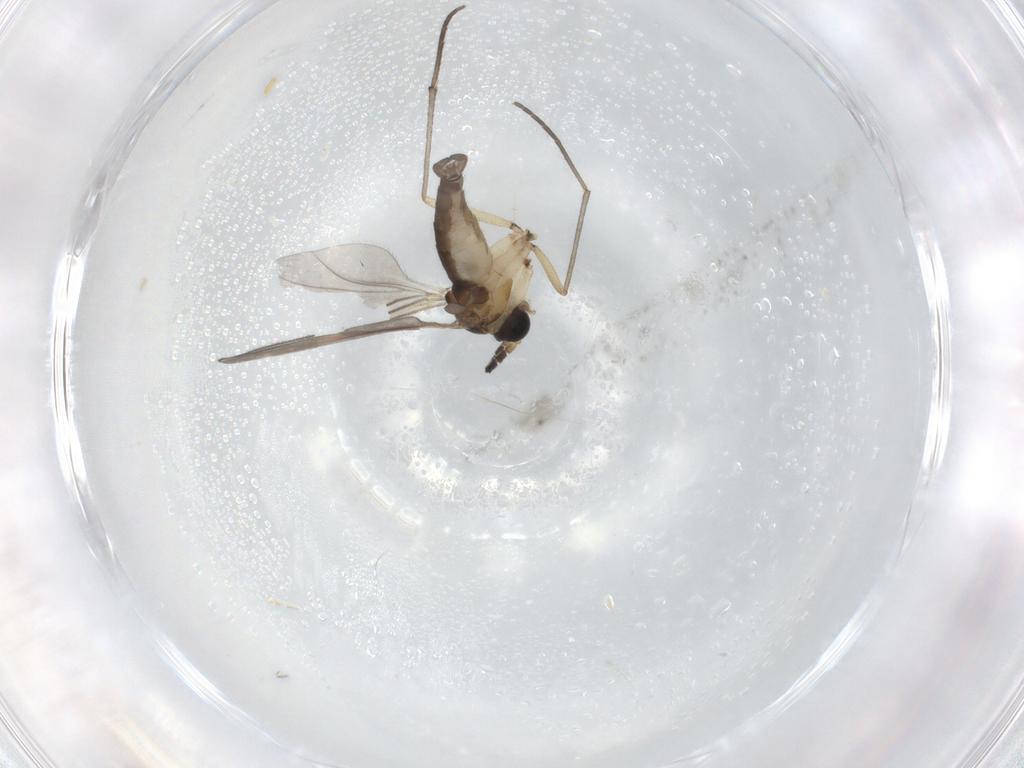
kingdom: Animalia
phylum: Arthropoda
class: Insecta
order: Diptera
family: Sciaridae
